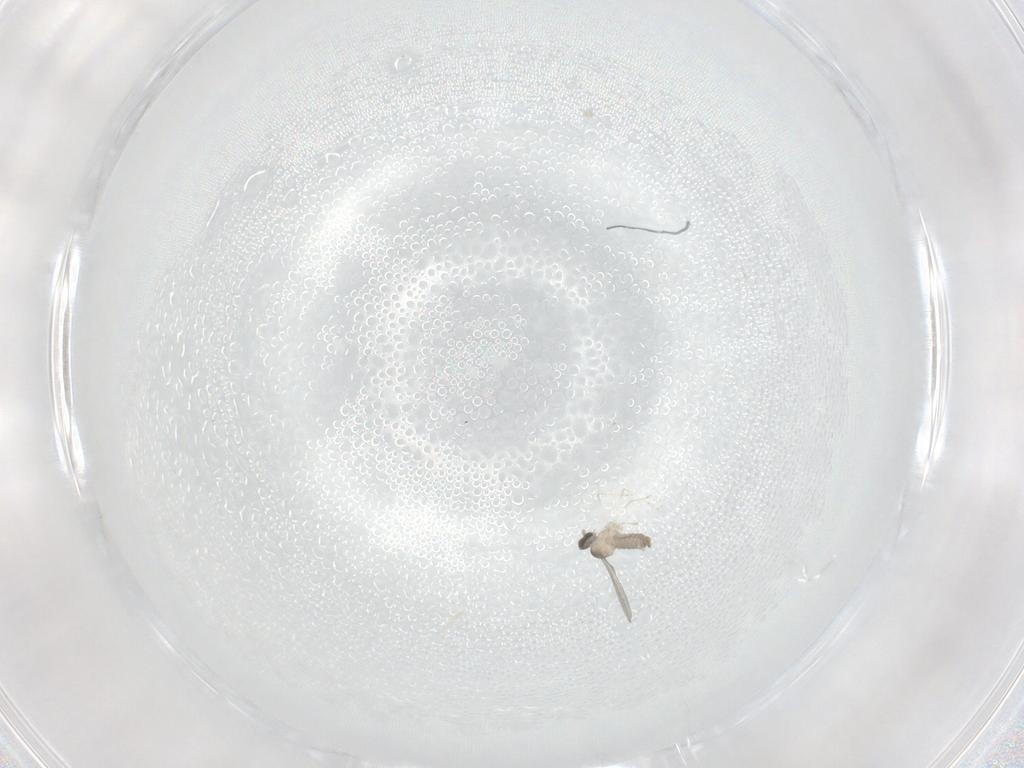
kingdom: Animalia
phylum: Arthropoda
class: Insecta
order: Diptera
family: Cecidomyiidae
